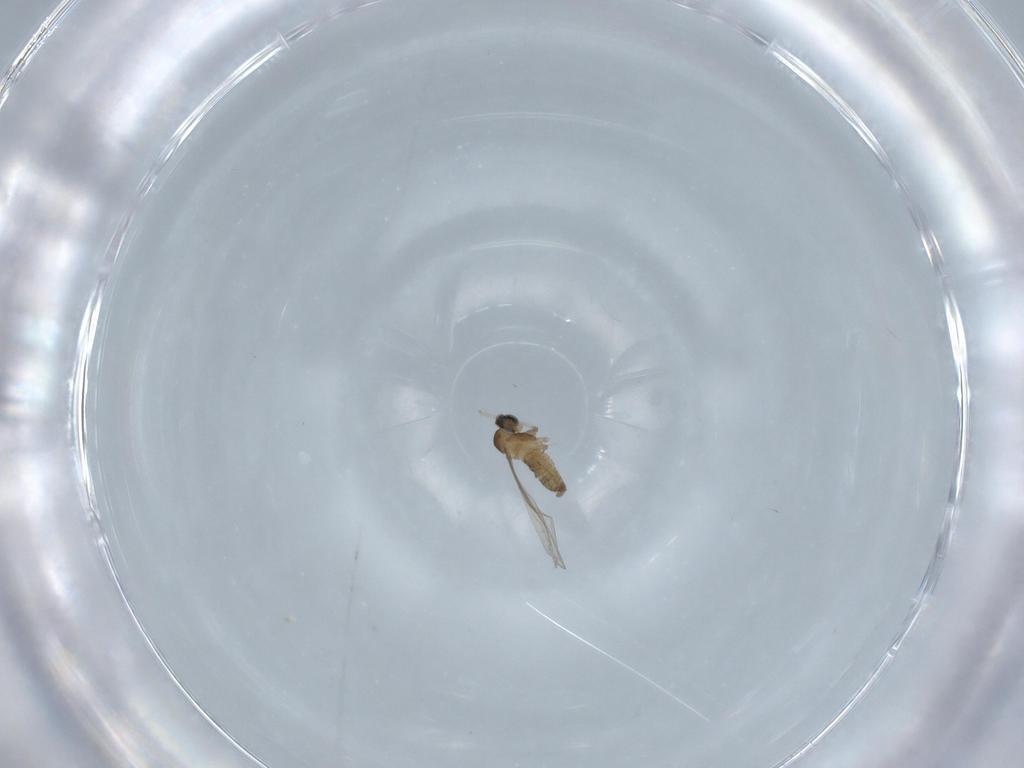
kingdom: Animalia
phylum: Arthropoda
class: Insecta
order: Diptera
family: Cecidomyiidae
